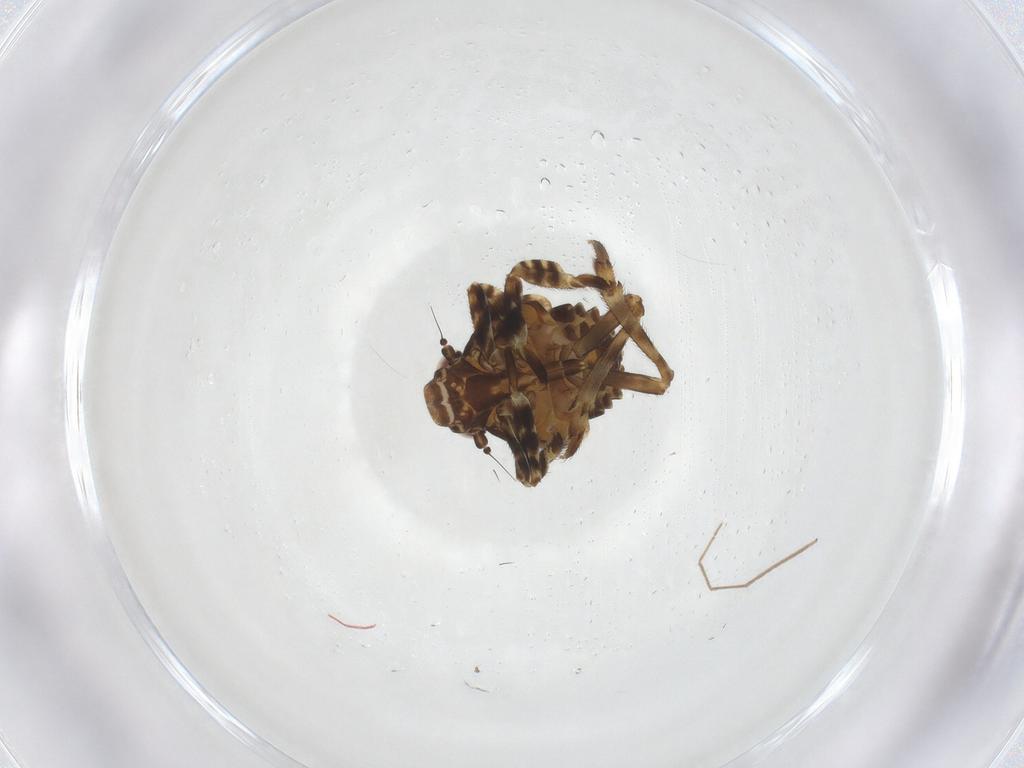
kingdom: Animalia
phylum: Arthropoda
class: Insecta
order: Hemiptera
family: Eurybrachidae
